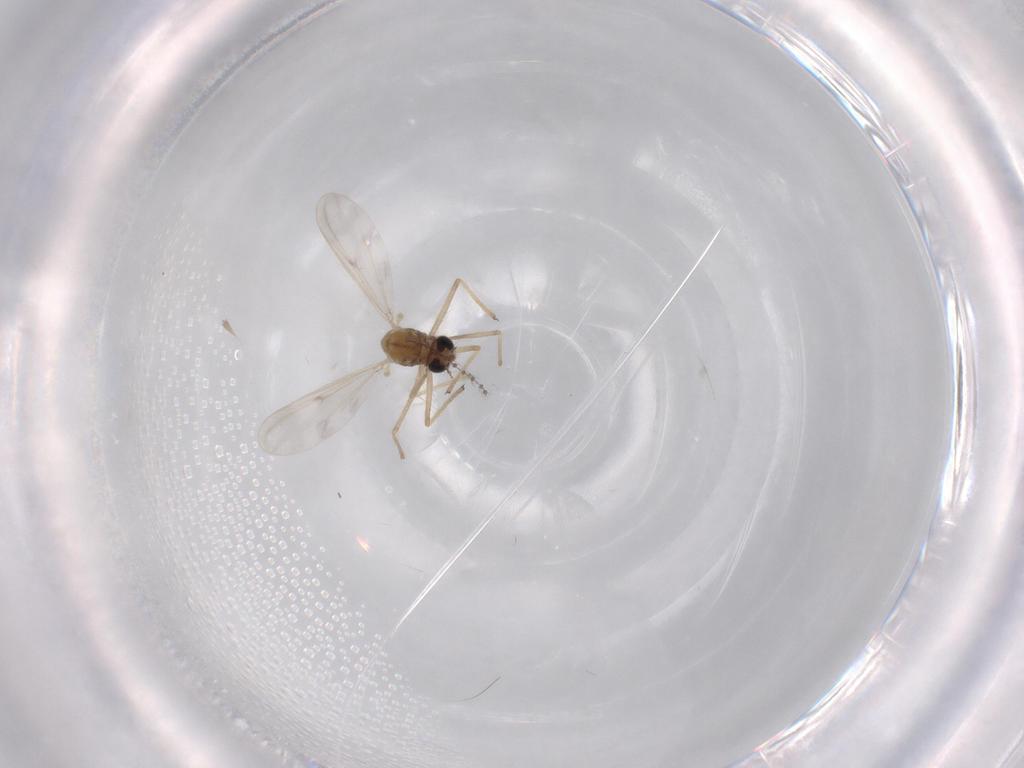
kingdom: Animalia
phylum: Arthropoda
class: Insecta
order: Diptera
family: Chironomidae
